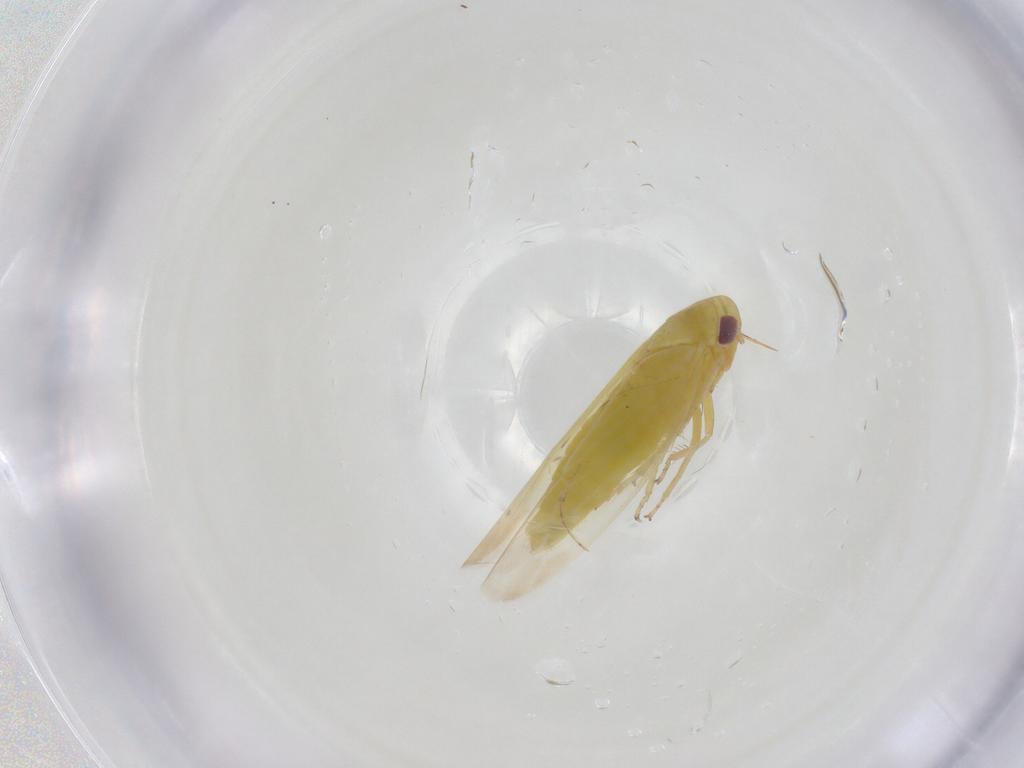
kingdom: Animalia
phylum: Arthropoda
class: Insecta
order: Hemiptera
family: Cicadellidae
